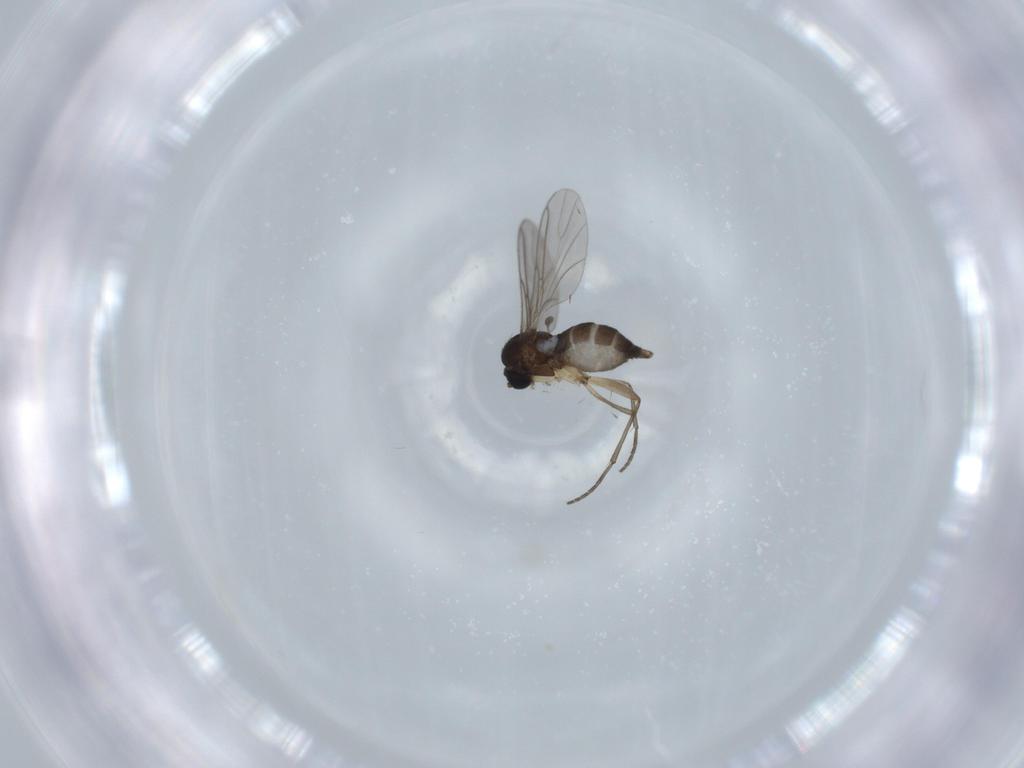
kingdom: Animalia
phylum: Arthropoda
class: Insecta
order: Diptera
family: Sciaridae
